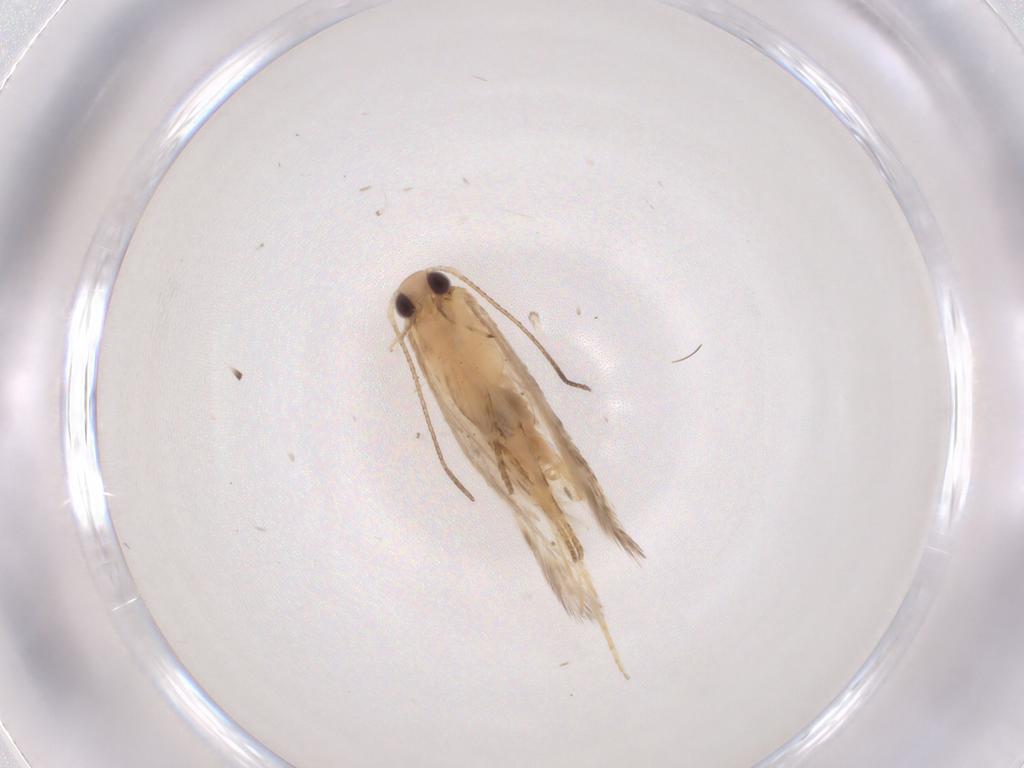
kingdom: Animalia
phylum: Arthropoda
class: Insecta
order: Lepidoptera
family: Gelechiidae
